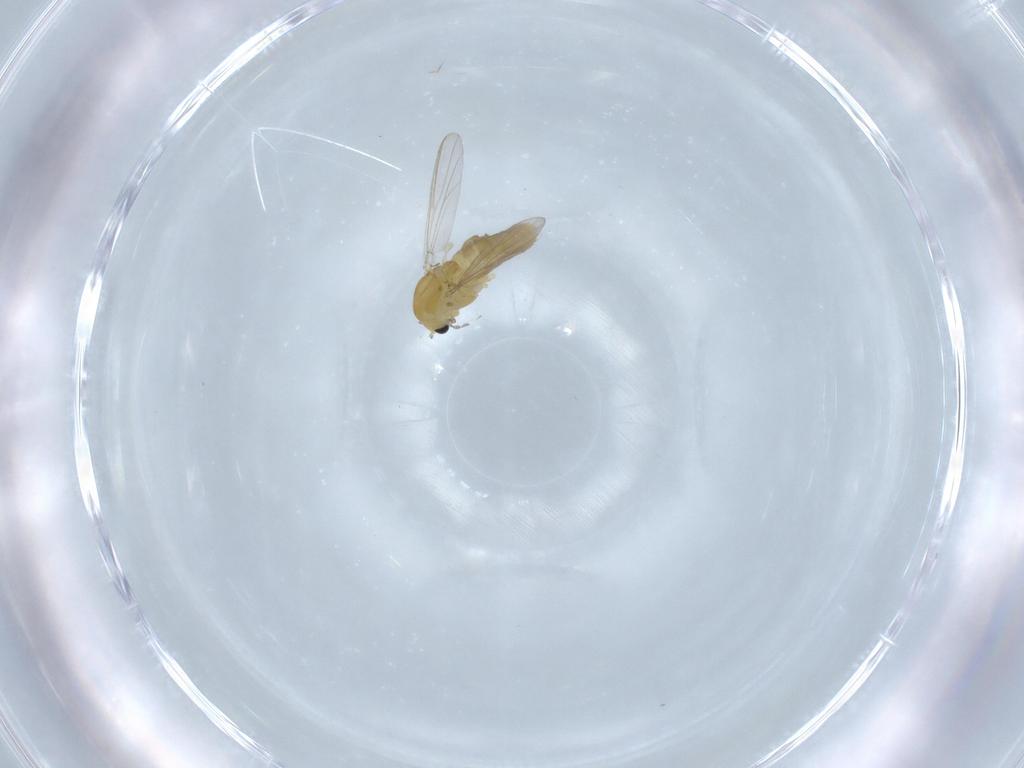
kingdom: Animalia
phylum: Arthropoda
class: Insecta
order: Diptera
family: Chironomidae
